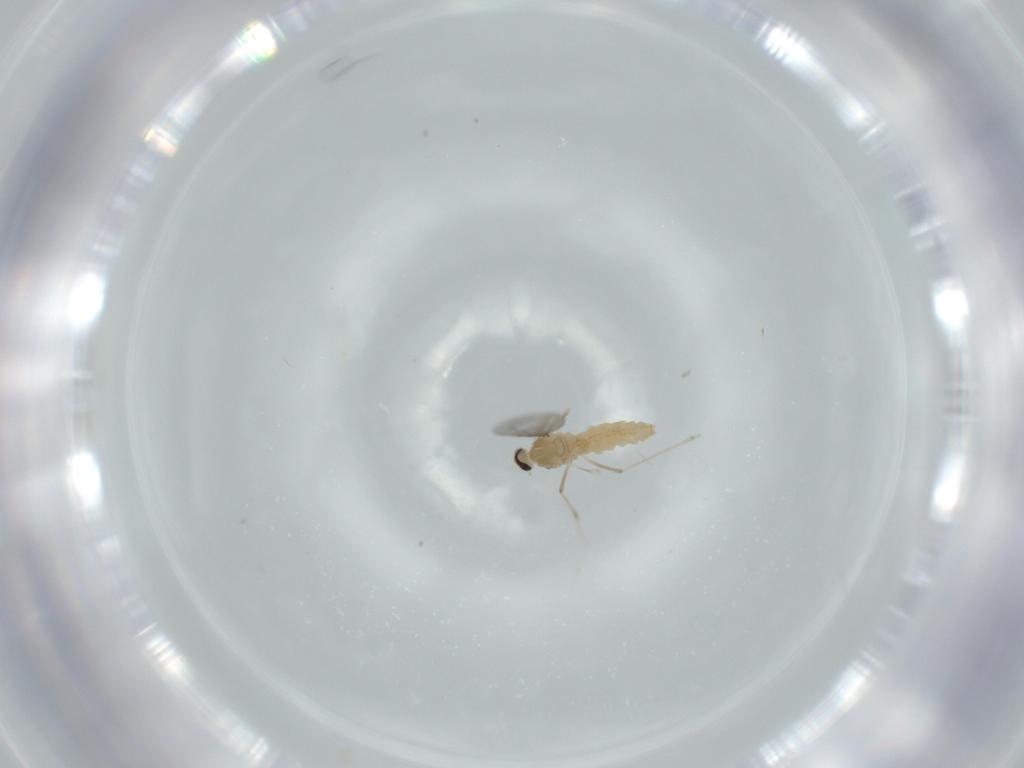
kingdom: Animalia
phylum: Arthropoda
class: Insecta
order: Diptera
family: Cecidomyiidae
